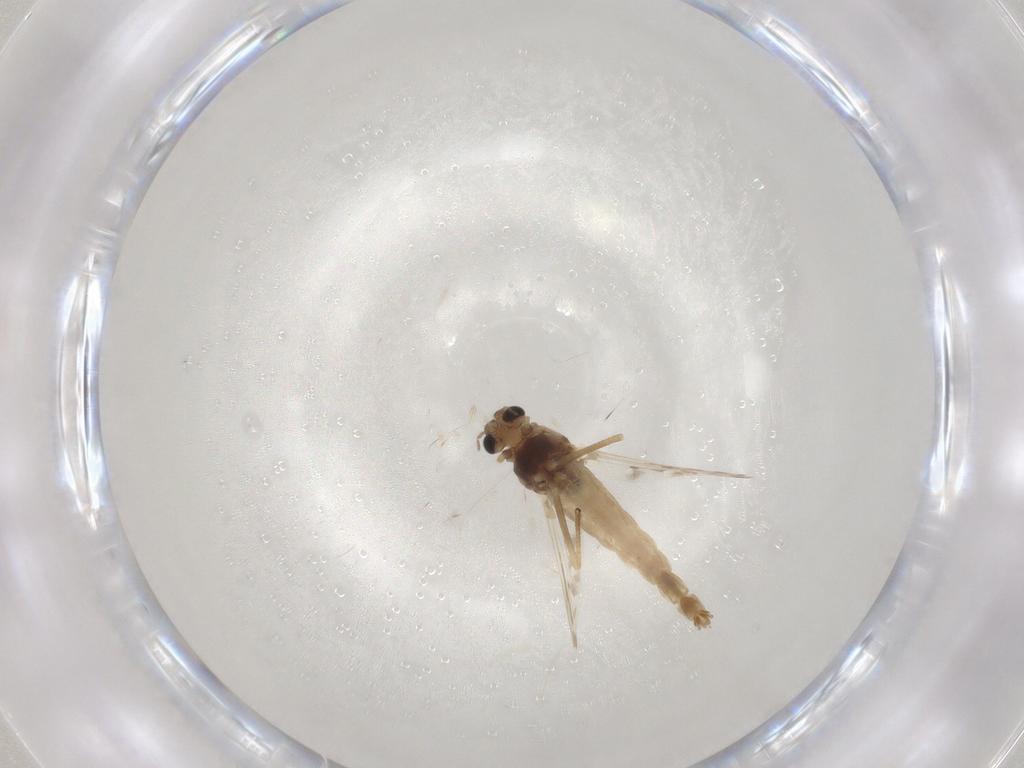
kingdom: Animalia
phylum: Arthropoda
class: Insecta
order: Diptera
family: Chironomidae
